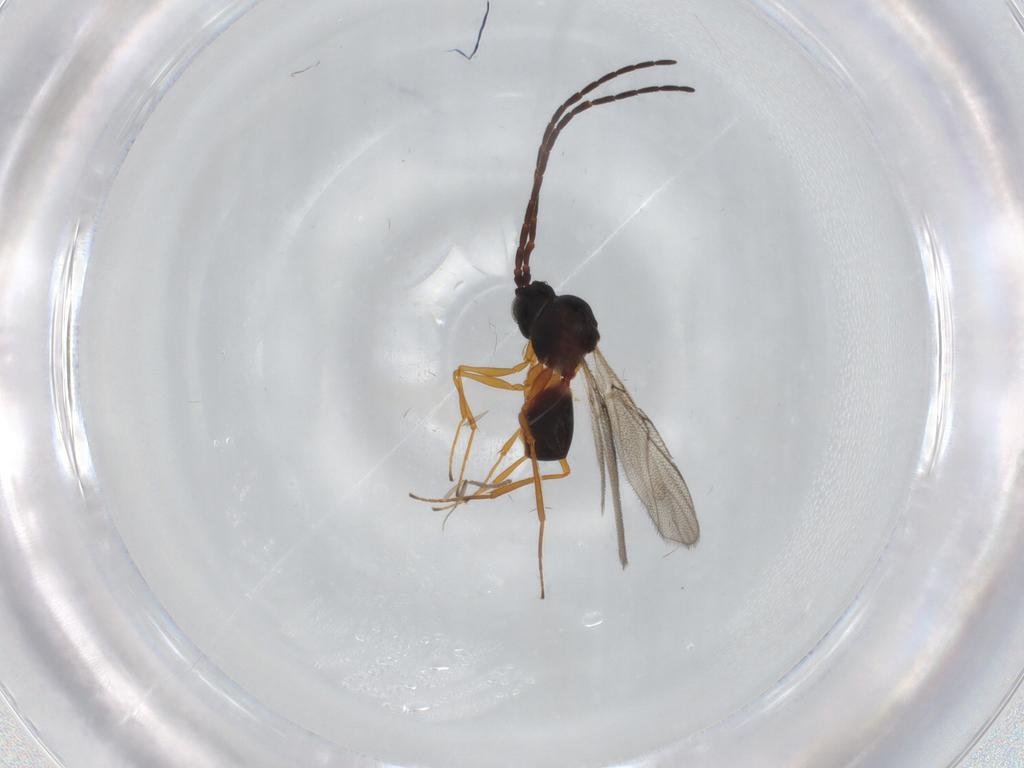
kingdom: Animalia
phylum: Arthropoda
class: Insecta
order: Hymenoptera
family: Figitidae
